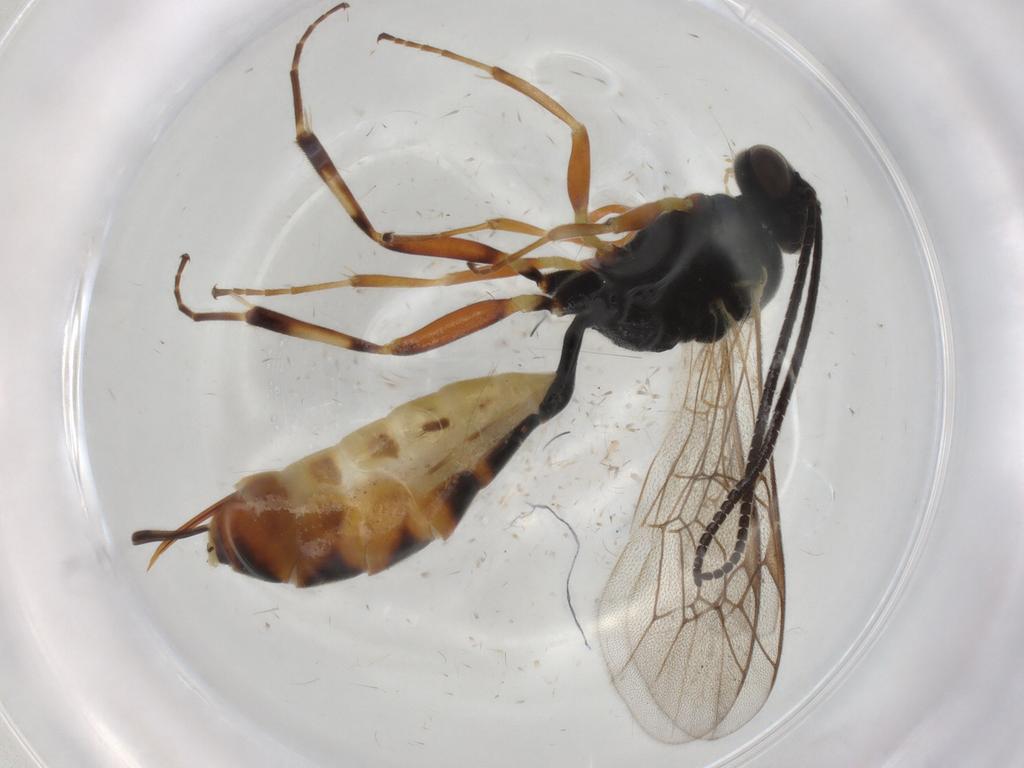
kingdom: Animalia
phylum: Arthropoda
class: Insecta
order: Hymenoptera
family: Ichneumonidae
